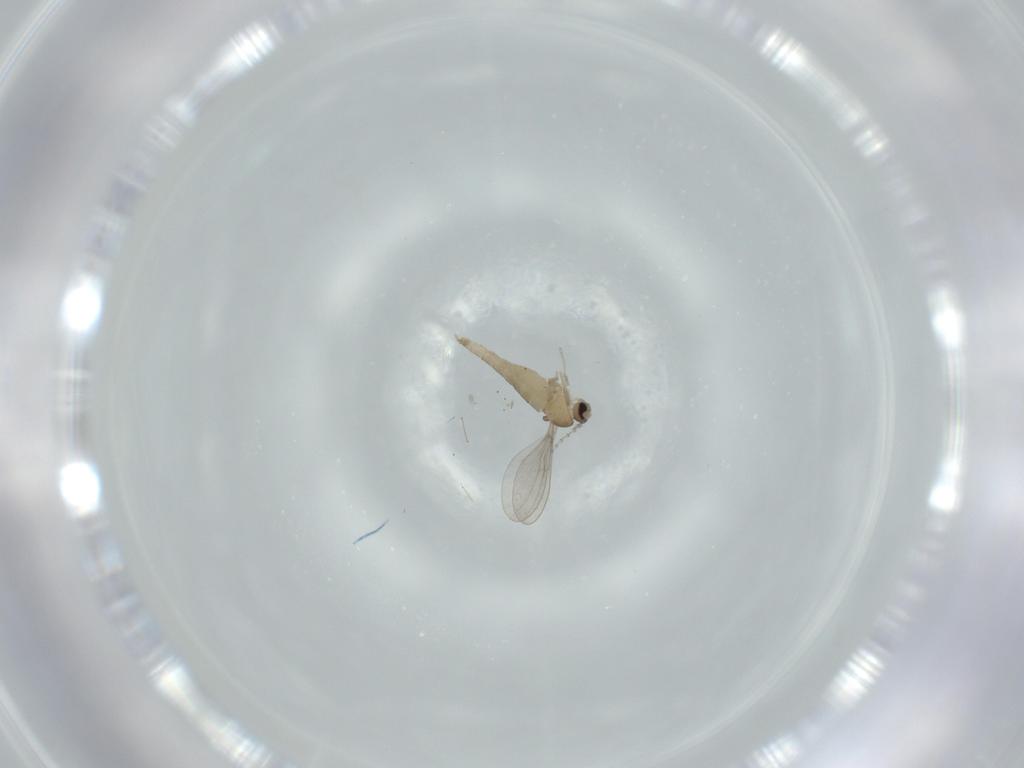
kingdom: Animalia
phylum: Arthropoda
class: Insecta
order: Diptera
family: Cecidomyiidae
